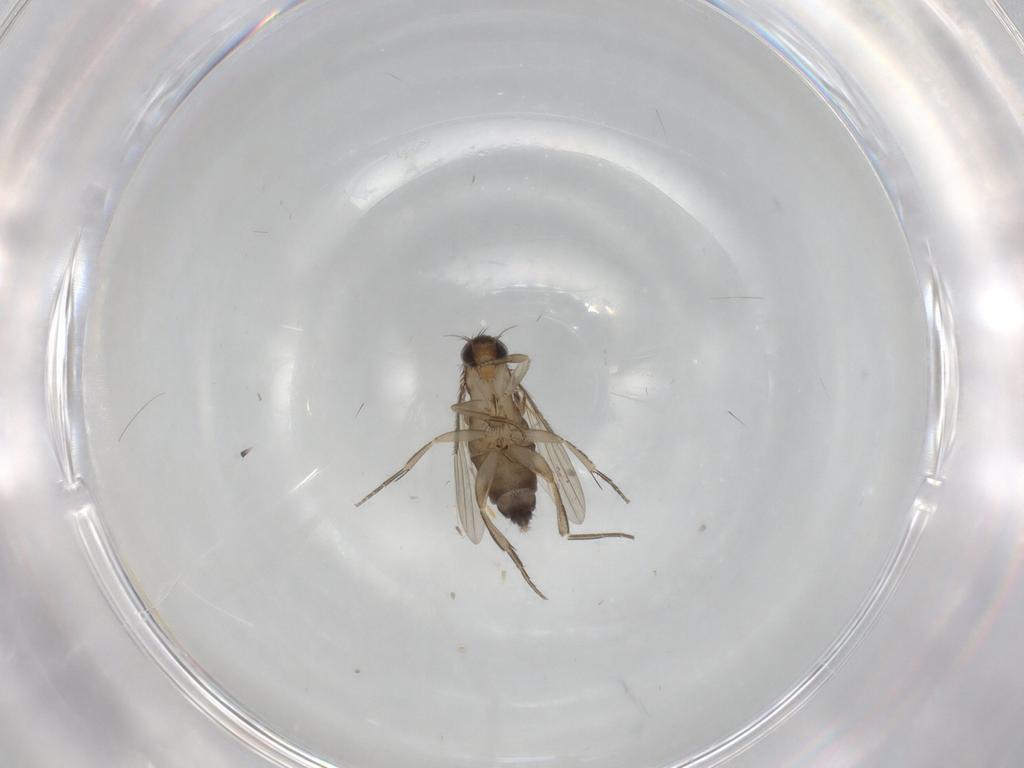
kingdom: Animalia
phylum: Arthropoda
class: Insecta
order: Diptera
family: Phoridae
